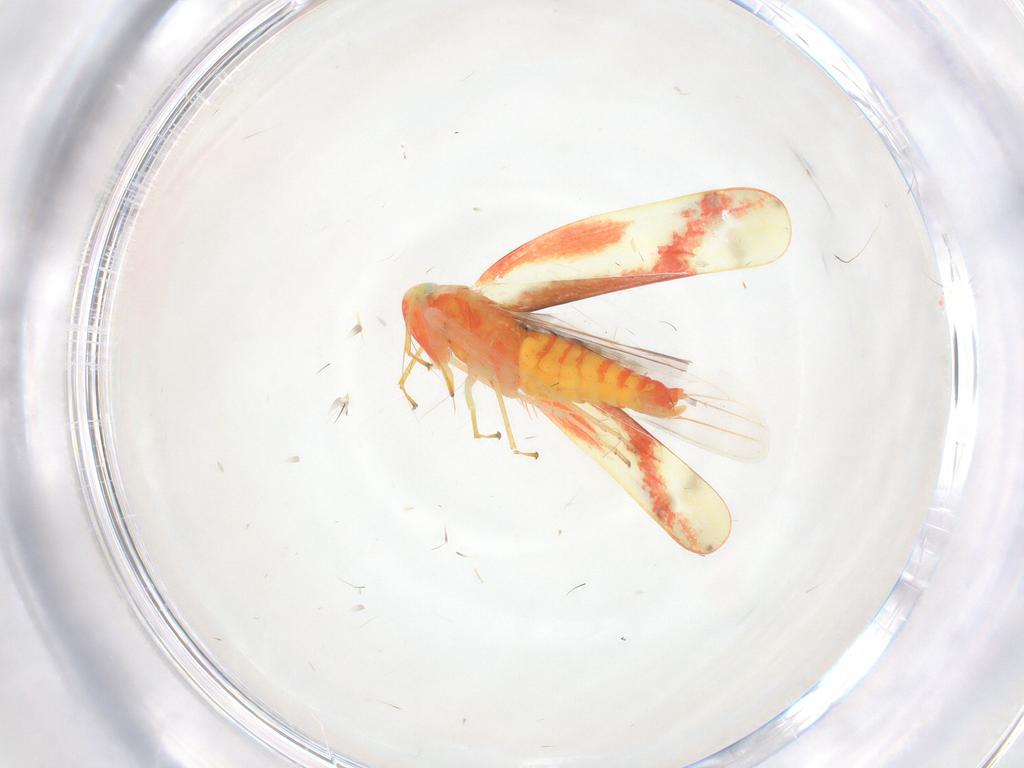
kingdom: Animalia
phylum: Arthropoda
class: Insecta
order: Hemiptera
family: Cicadellidae
